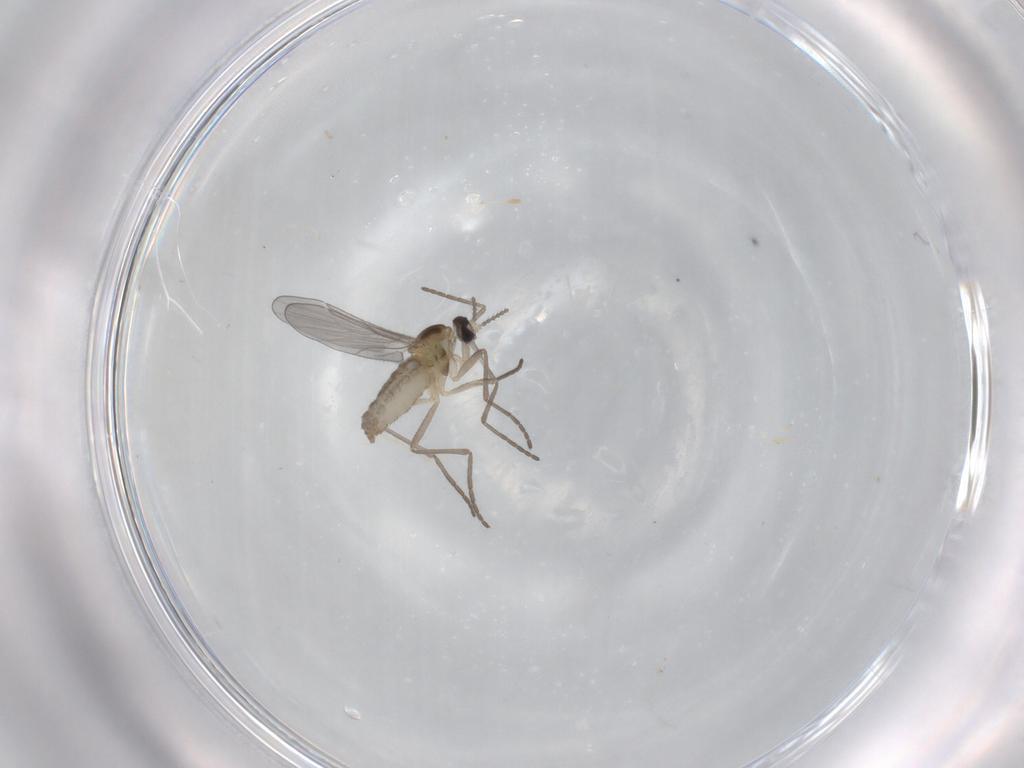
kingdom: Animalia
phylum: Arthropoda
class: Insecta
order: Diptera
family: Cecidomyiidae
